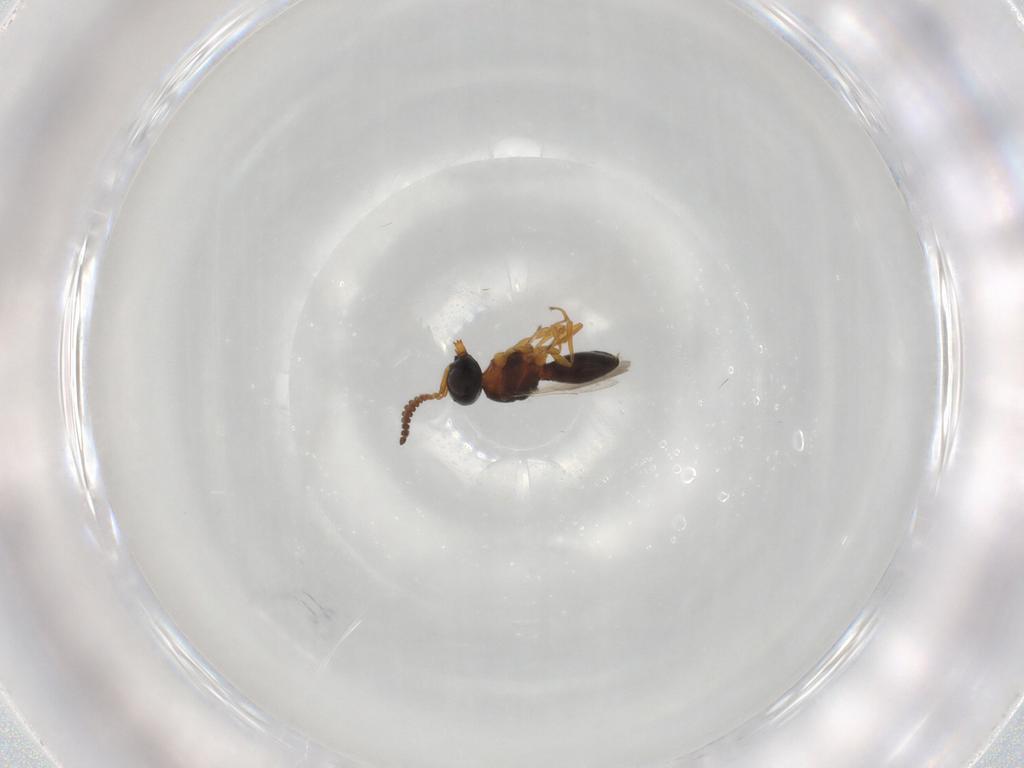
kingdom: Animalia
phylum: Arthropoda
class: Insecta
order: Hymenoptera
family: Scelionidae
